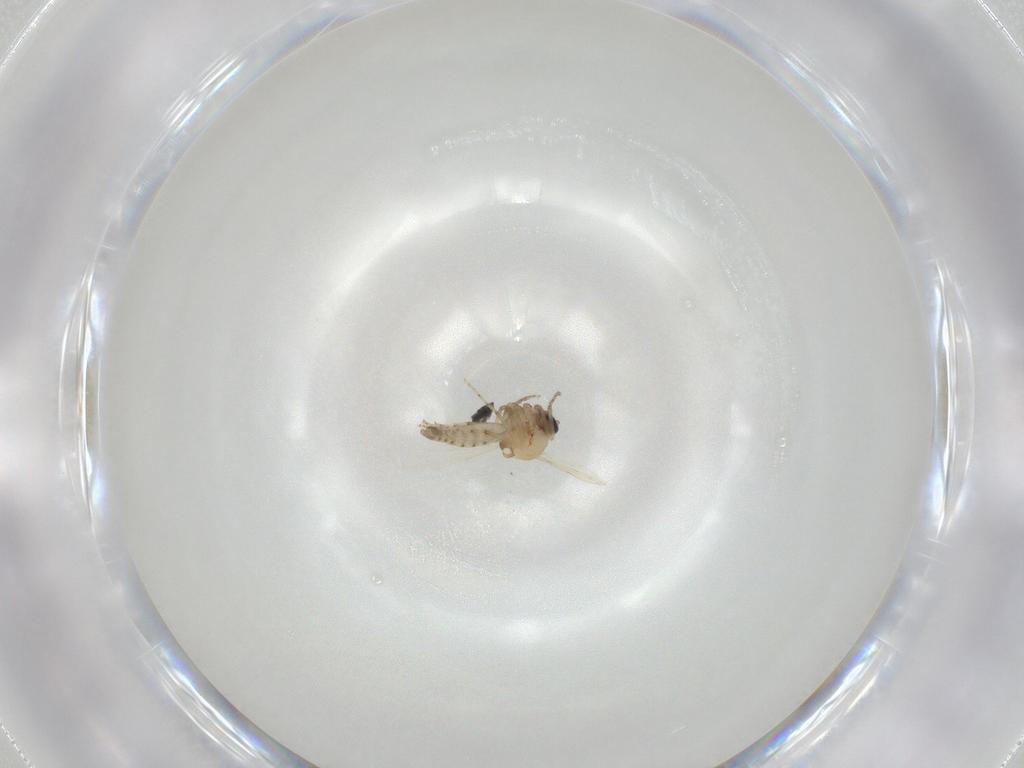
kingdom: Animalia
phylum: Arthropoda
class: Insecta
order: Diptera
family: Ceratopogonidae
